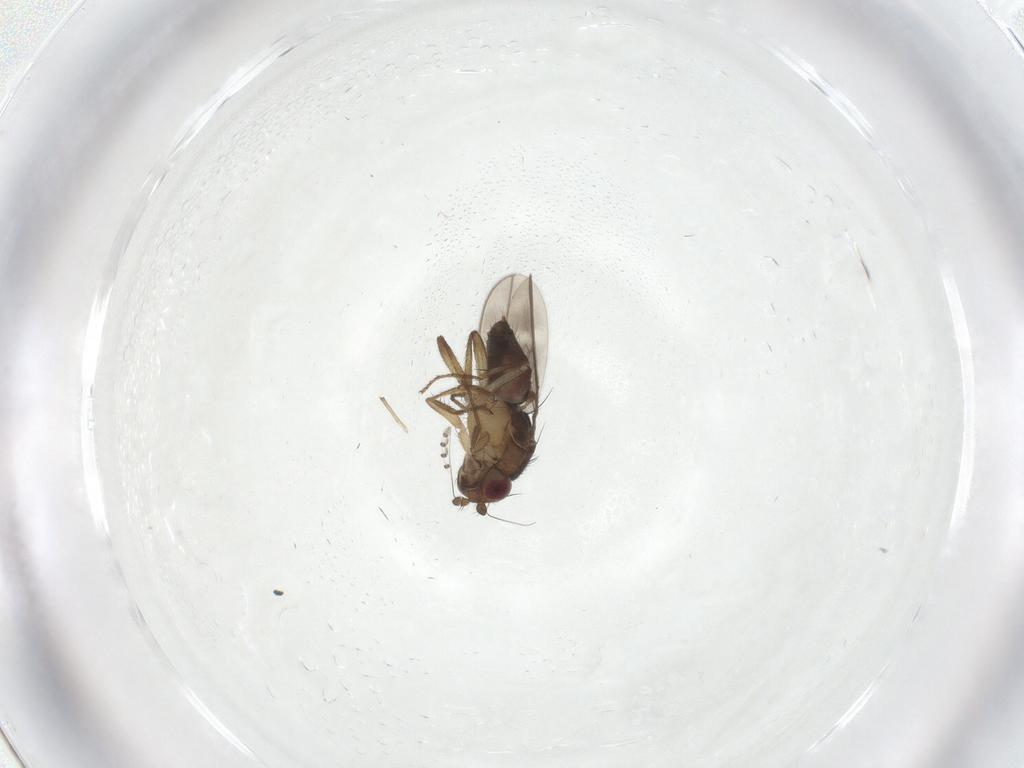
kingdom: Animalia
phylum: Arthropoda
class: Insecta
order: Diptera
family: Sphaeroceridae
